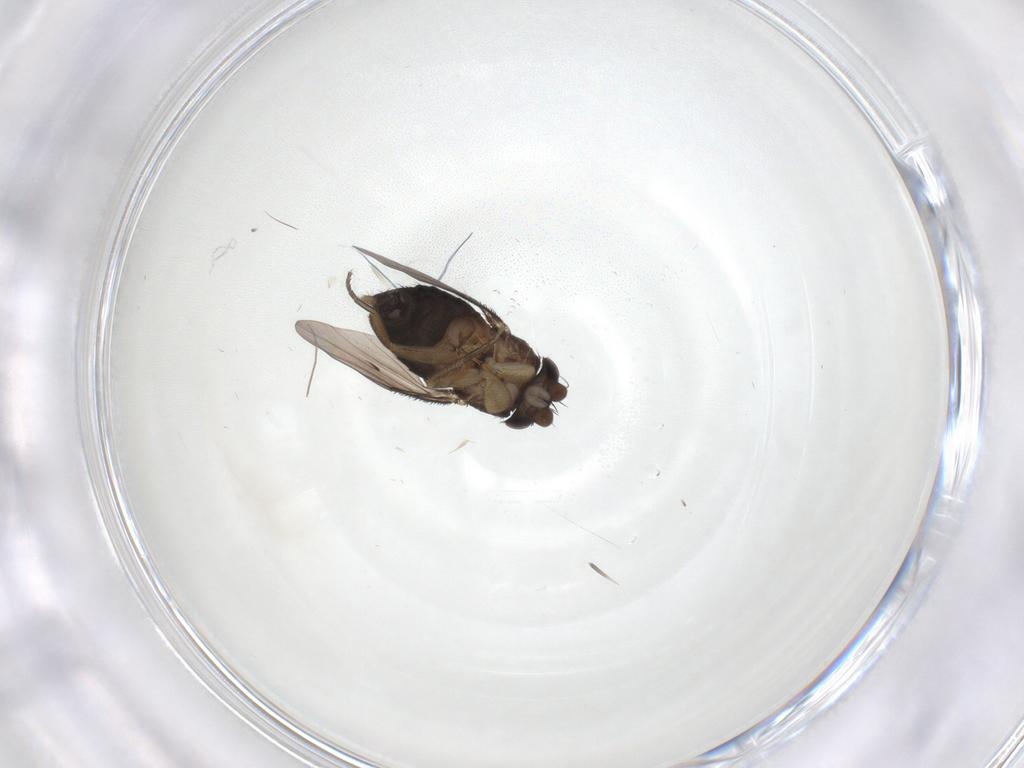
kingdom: Animalia
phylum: Arthropoda
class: Insecta
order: Diptera
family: Phoridae
